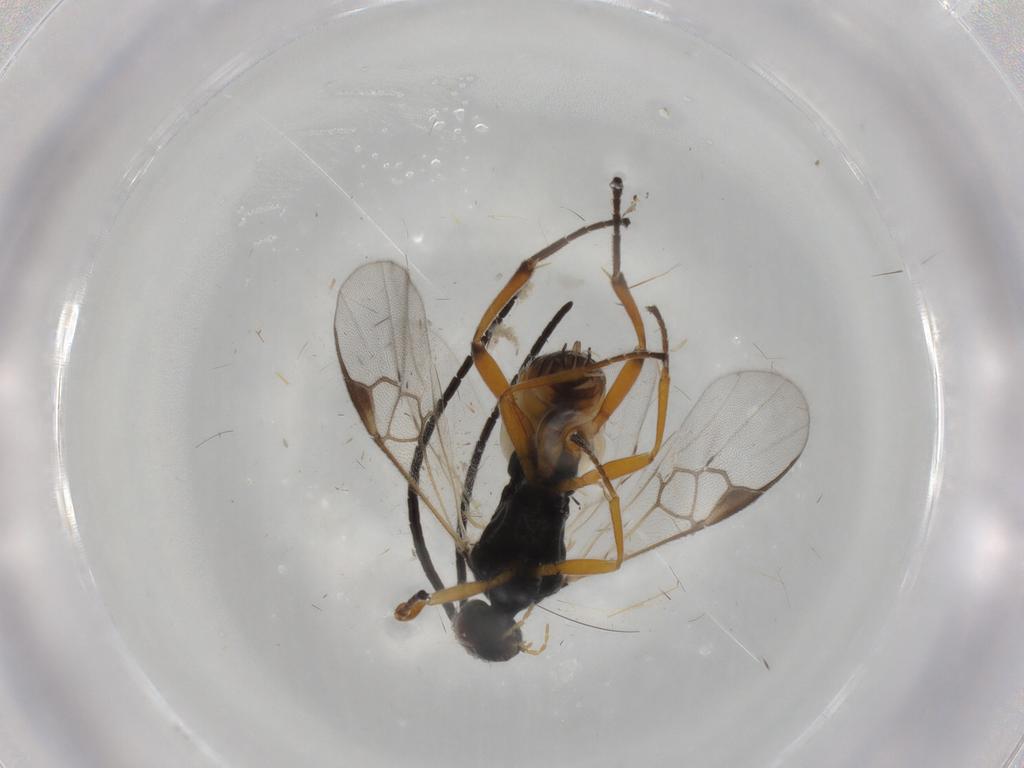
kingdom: Animalia
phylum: Arthropoda
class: Insecta
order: Hymenoptera
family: Braconidae
